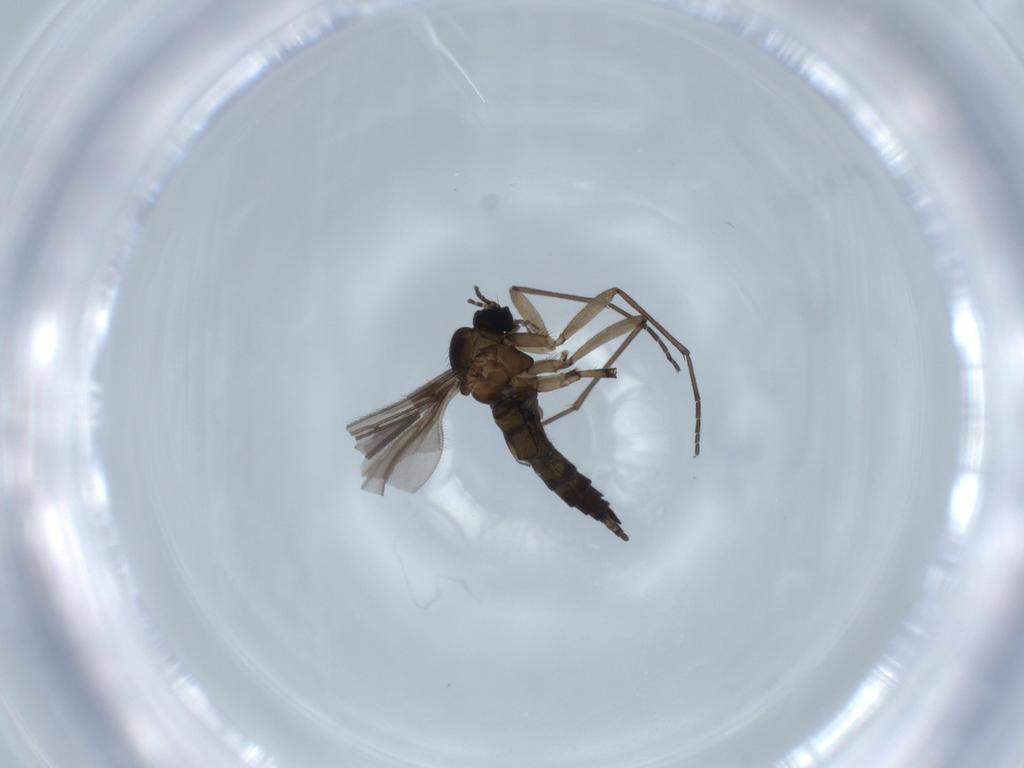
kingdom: Animalia
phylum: Arthropoda
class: Insecta
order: Diptera
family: Sciaridae
